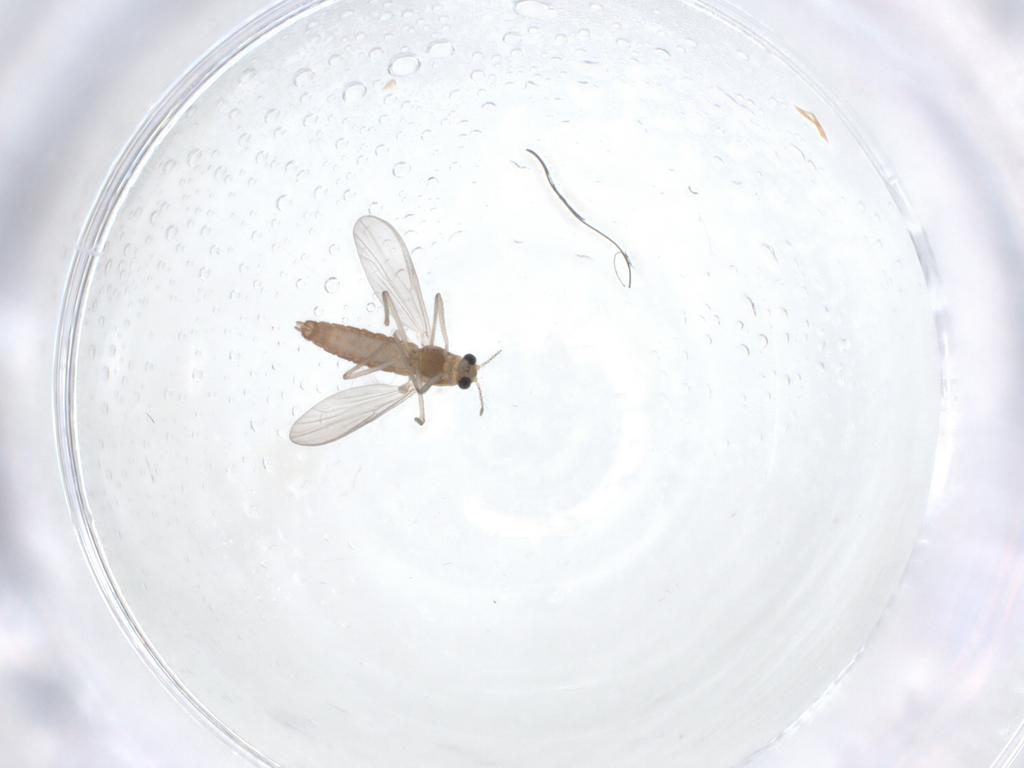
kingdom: Animalia
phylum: Arthropoda
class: Insecta
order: Diptera
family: Chironomidae
